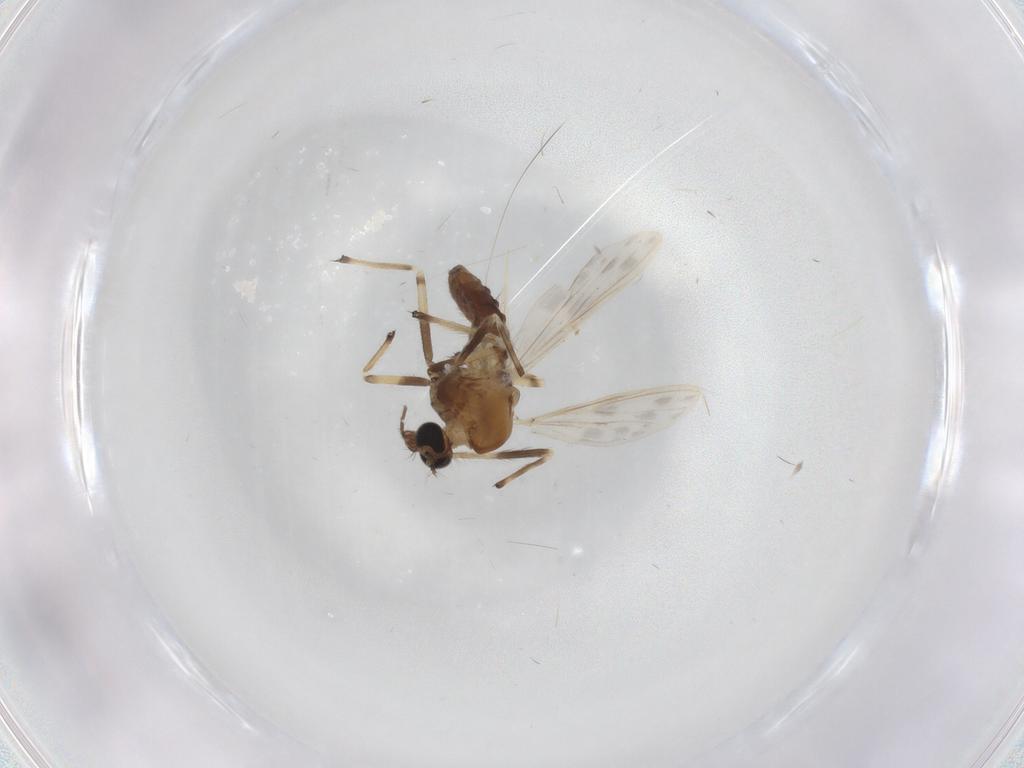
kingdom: Animalia
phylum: Arthropoda
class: Insecta
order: Diptera
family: Chironomidae
